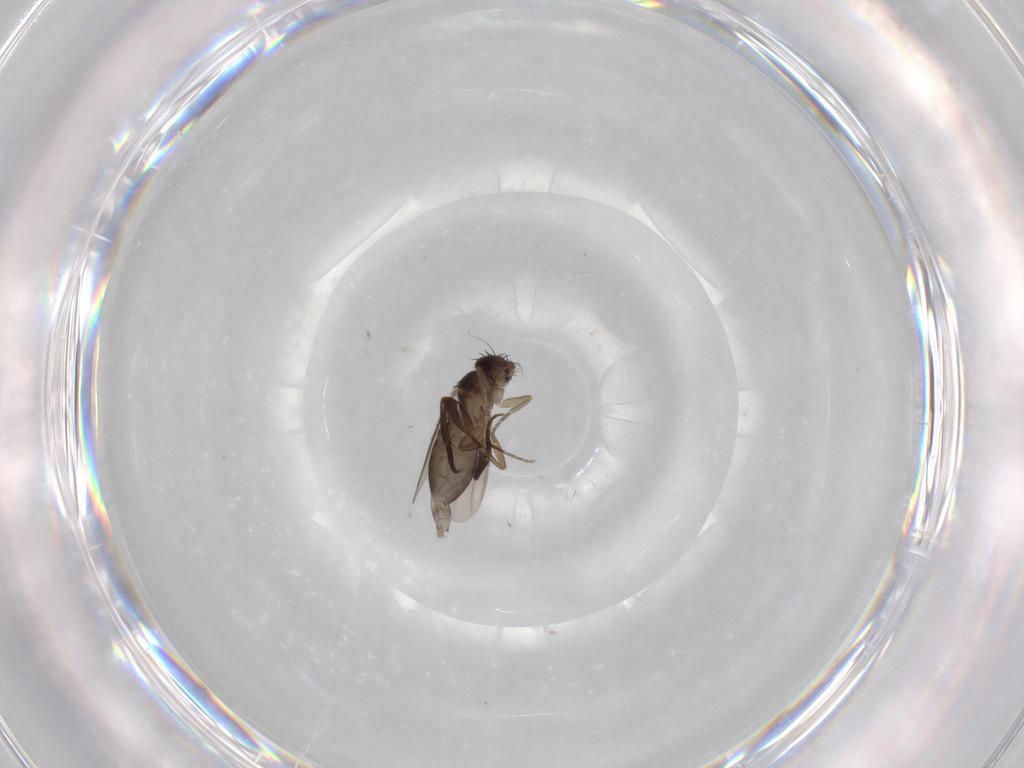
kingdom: Animalia
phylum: Arthropoda
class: Insecta
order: Diptera
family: Phoridae
